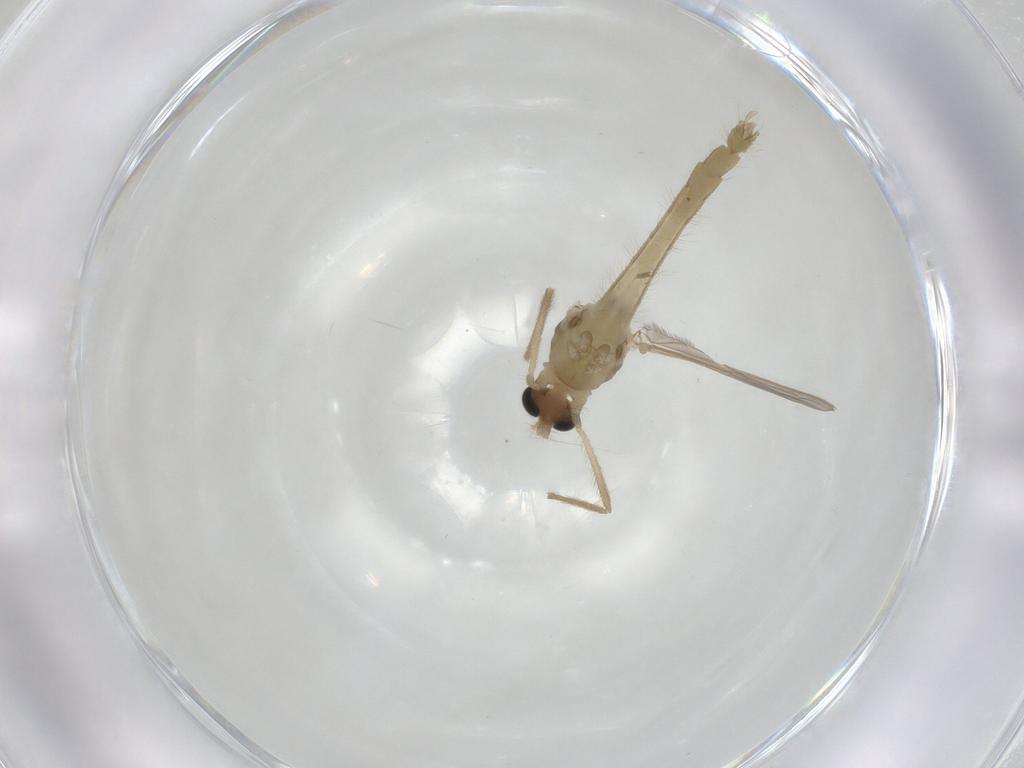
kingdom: Animalia
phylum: Arthropoda
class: Insecta
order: Diptera
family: Chironomidae
